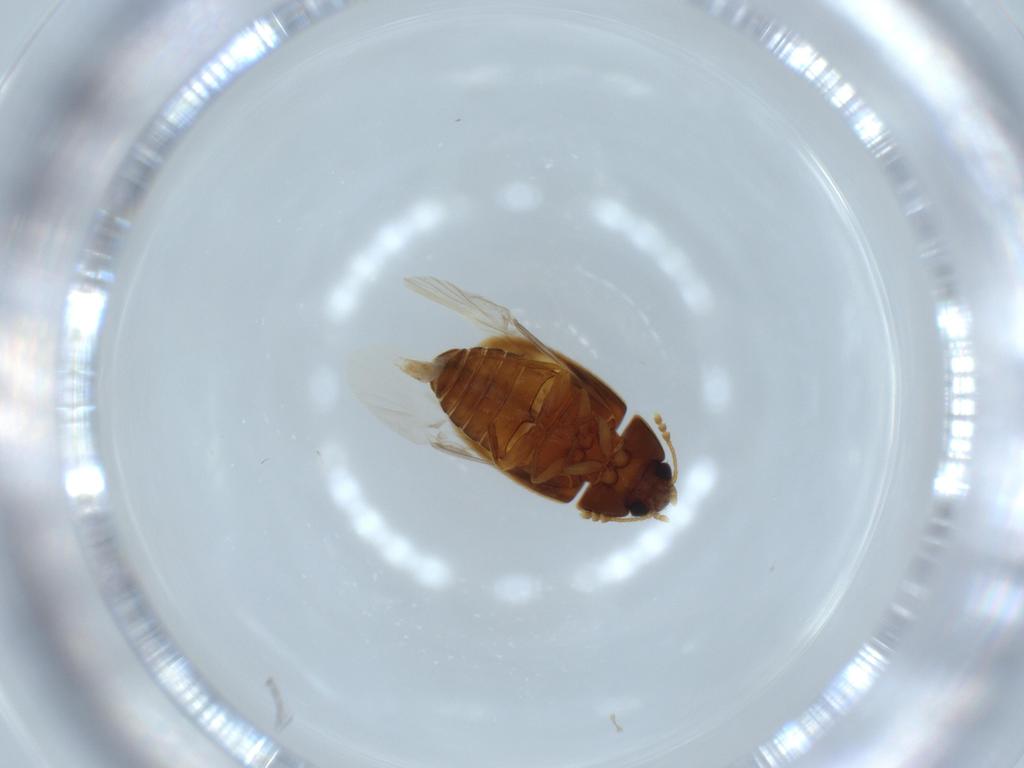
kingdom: Animalia
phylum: Arthropoda
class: Insecta
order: Coleoptera
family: Mycetophagidae
